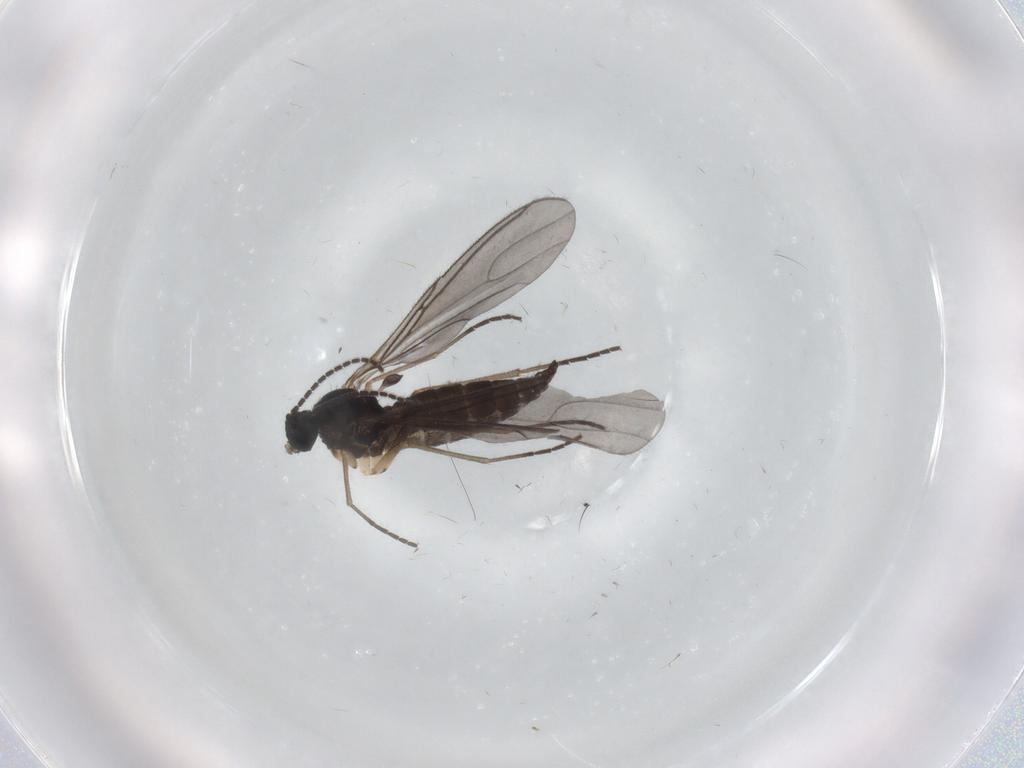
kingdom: Animalia
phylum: Arthropoda
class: Insecta
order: Diptera
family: Sciaridae
